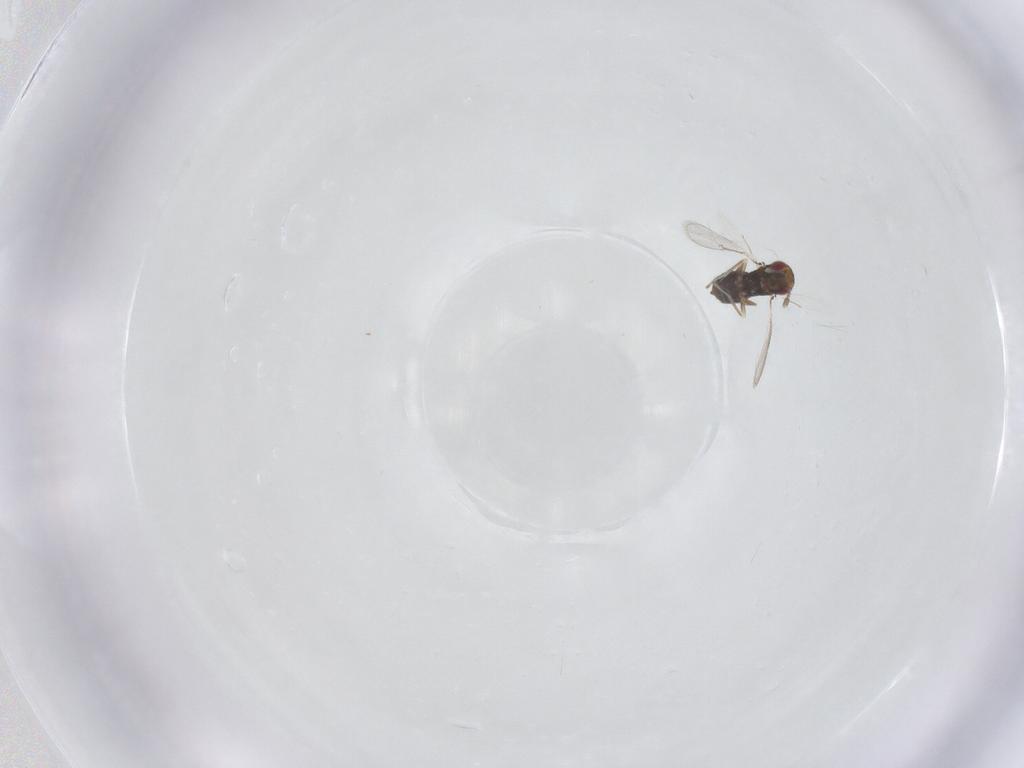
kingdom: Animalia
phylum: Arthropoda
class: Insecta
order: Hymenoptera
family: Eulophidae
